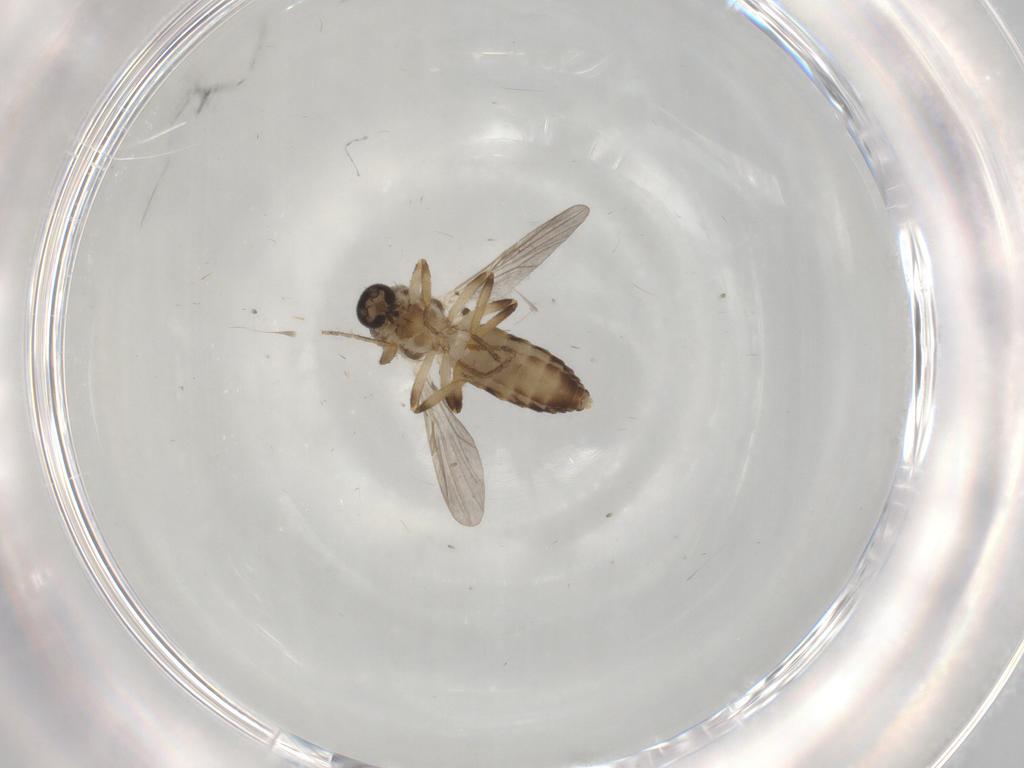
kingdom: Animalia
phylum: Arthropoda
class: Insecta
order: Diptera
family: Ceratopogonidae
